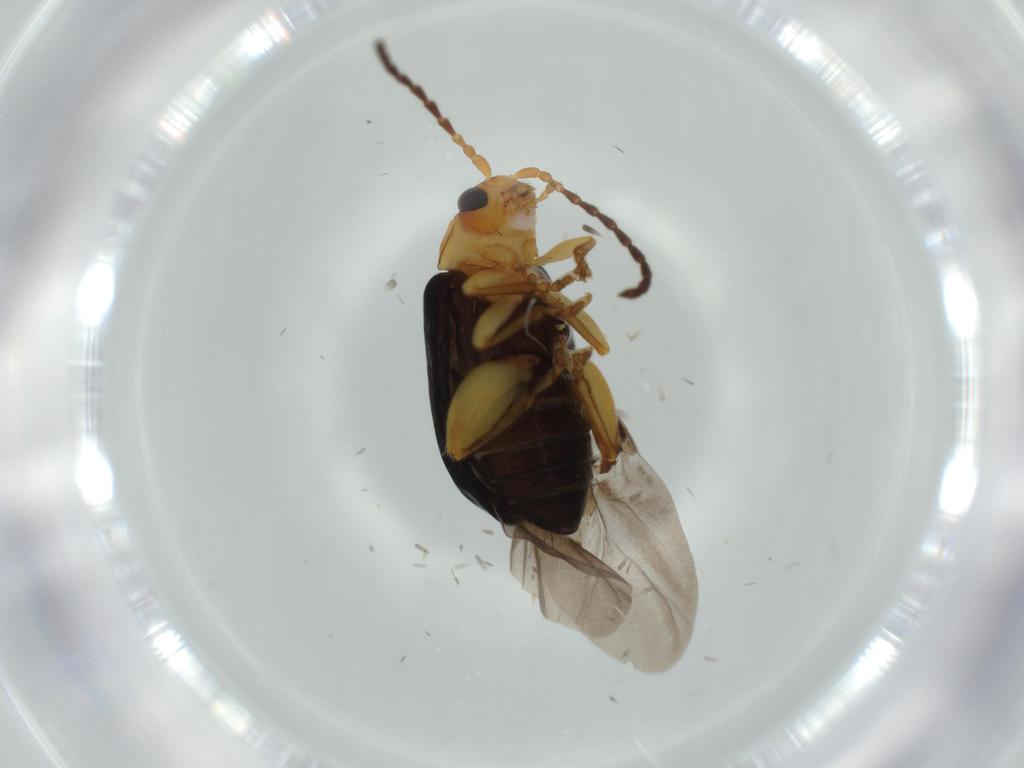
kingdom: Animalia
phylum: Arthropoda
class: Insecta
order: Coleoptera
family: Chrysomelidae
